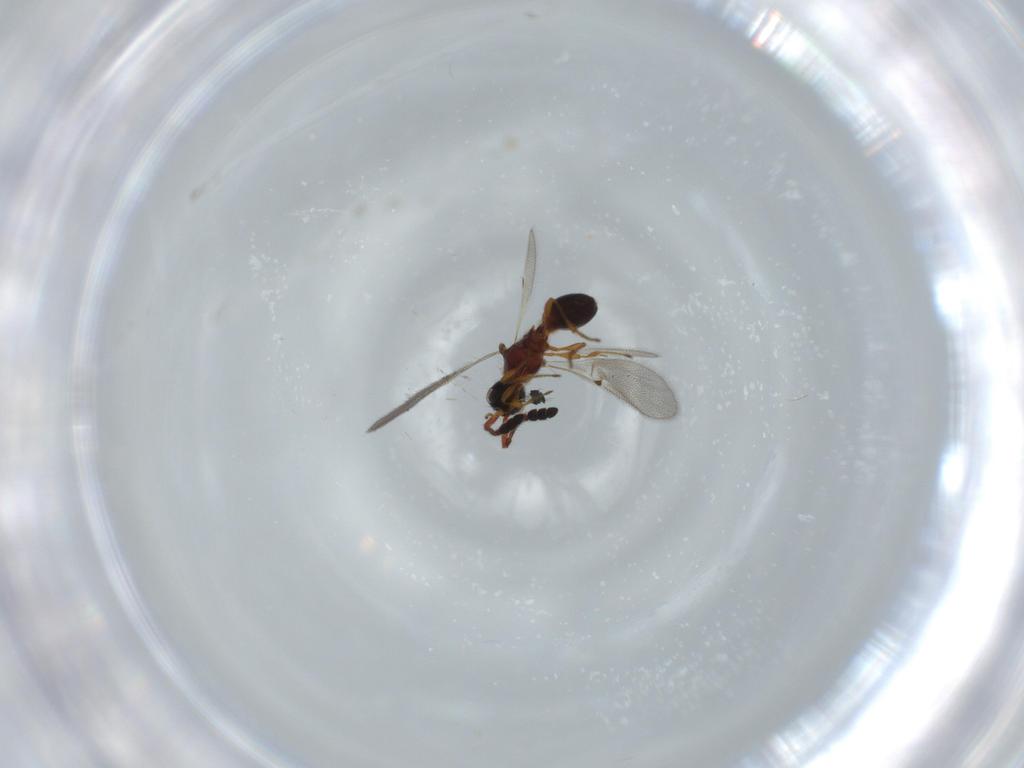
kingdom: Animalia
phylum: Arthropoda
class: Insecta
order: Hymenoptera
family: Diapriidae
